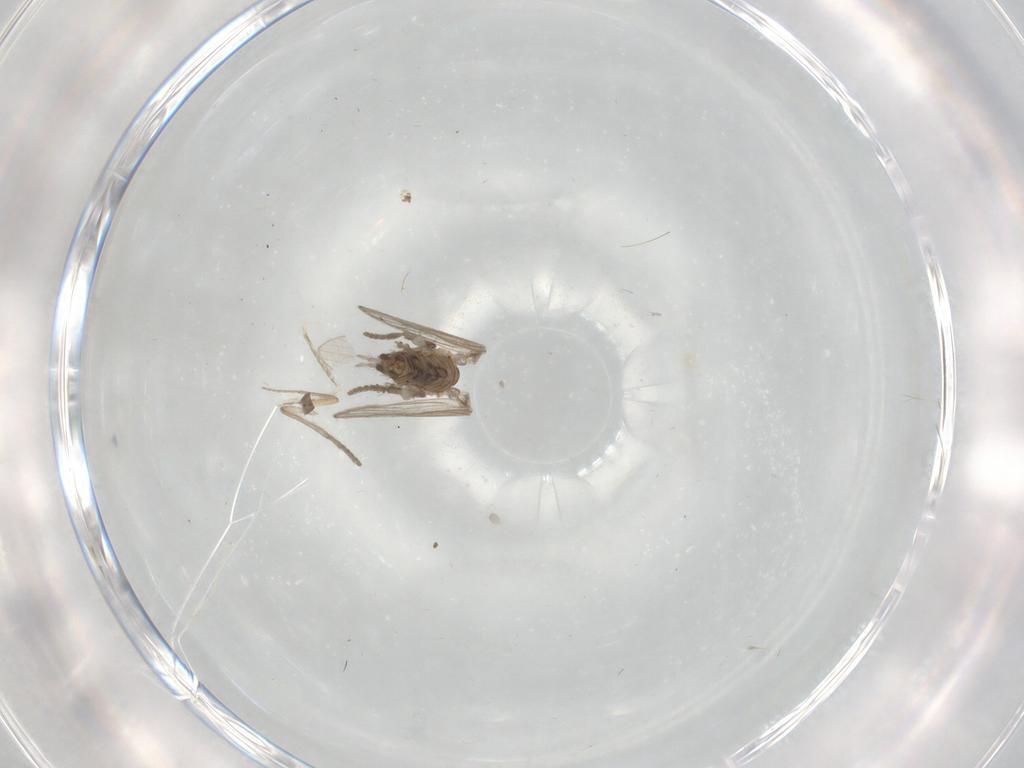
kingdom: Animalia
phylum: Arthropoda
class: Insecta
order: Diptera
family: Psychodidae
